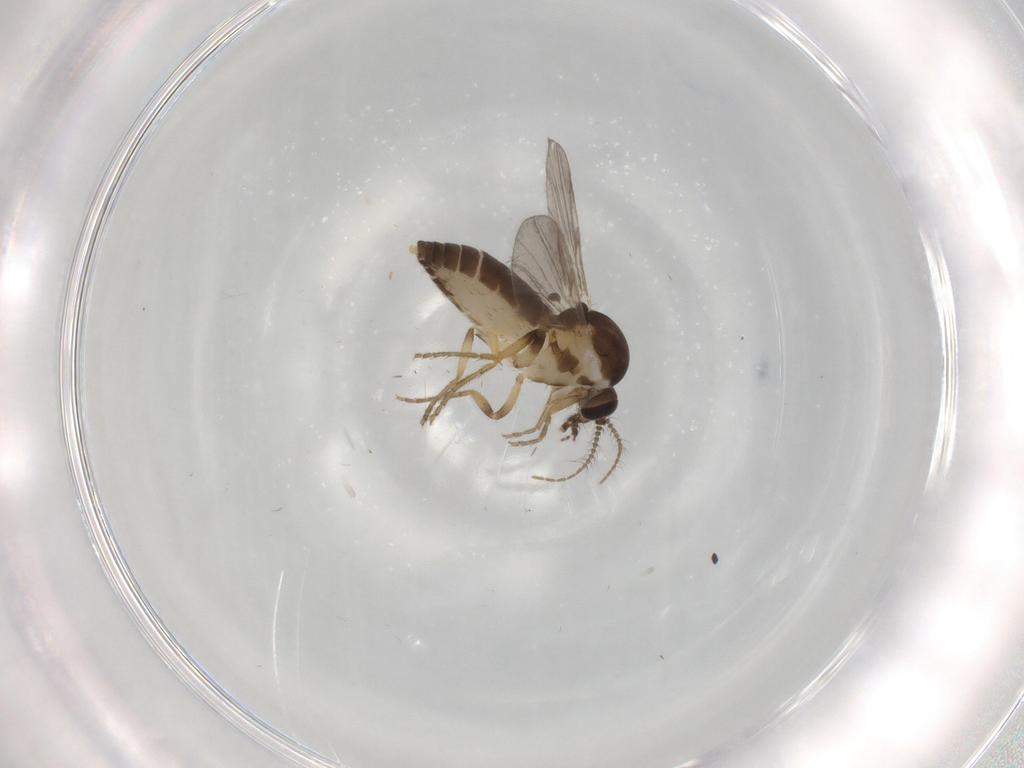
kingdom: Animalia
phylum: Arthropoda
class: Insecta
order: Diptera
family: Ceratopogonidae
